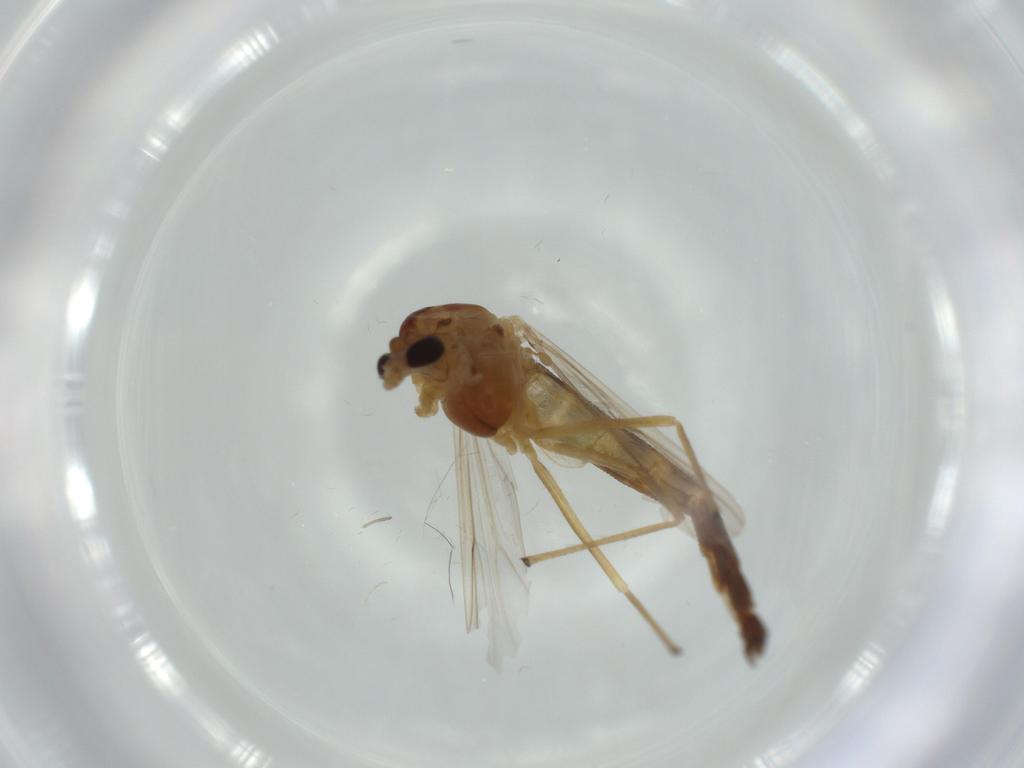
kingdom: Animalia
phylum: Arthropoda
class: Insecta
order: Diptera
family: Chironomidae
